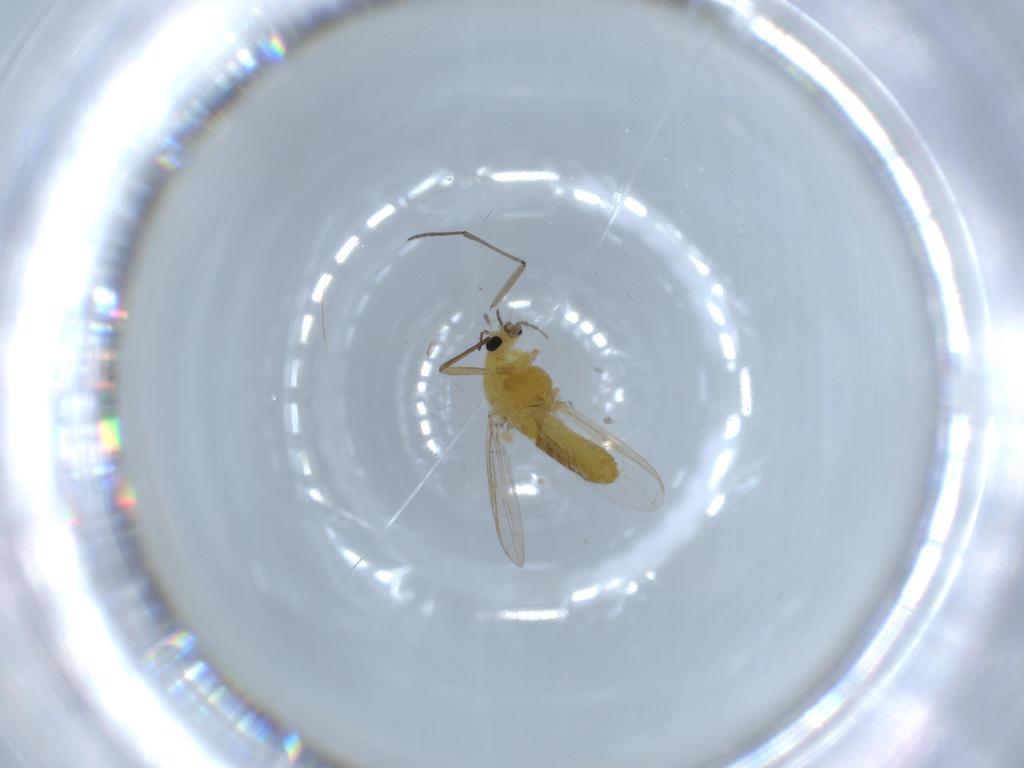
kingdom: Animalia
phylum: Arthropoda
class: Insecta
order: Diptera
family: Chironomidae
